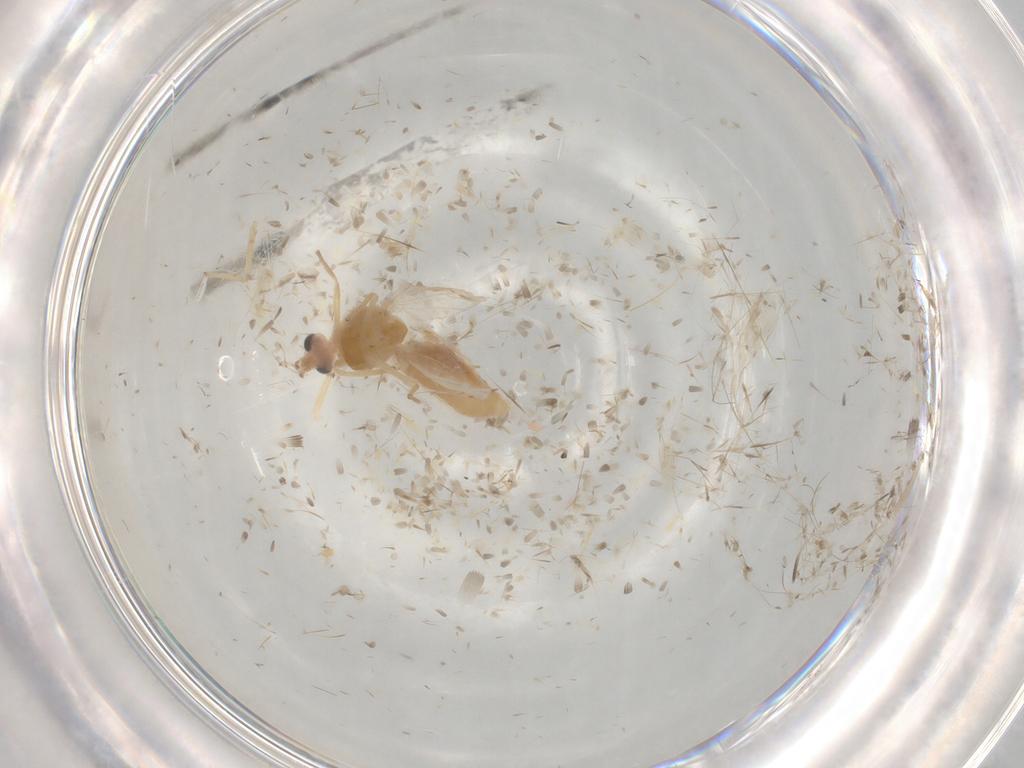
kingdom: Animalia
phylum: Arthropoda
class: Insecta
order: Diptera
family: Chironomidae
